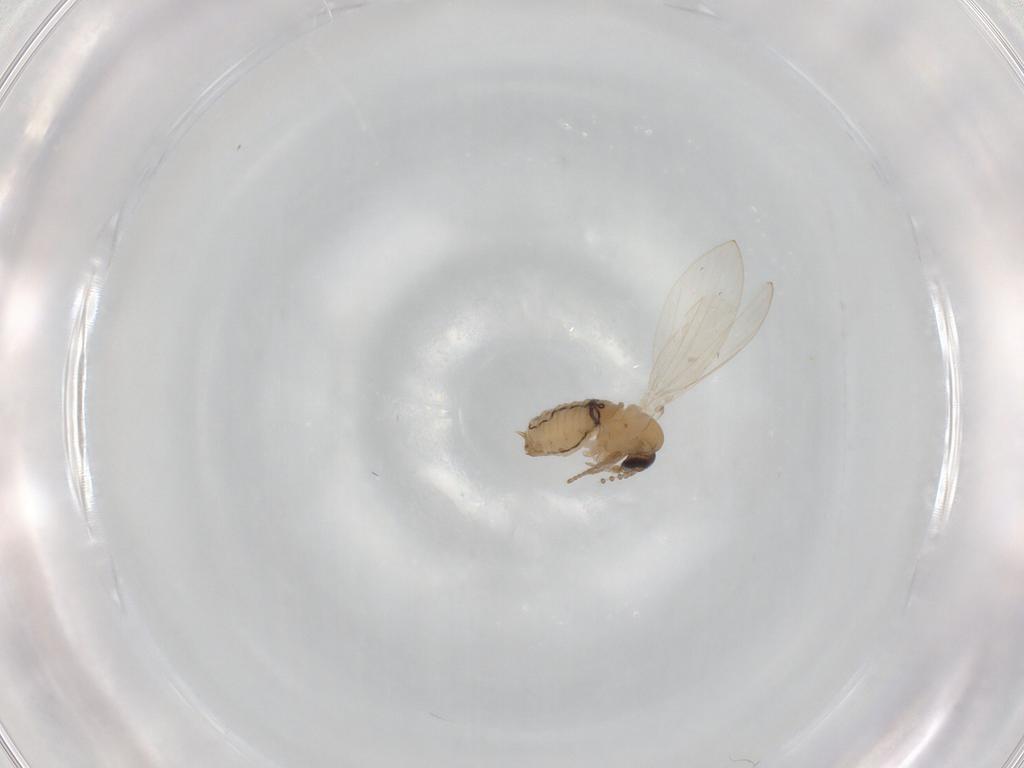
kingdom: Animalia
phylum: Arthropoda
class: Insecta
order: Diptera
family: Psychodidae
